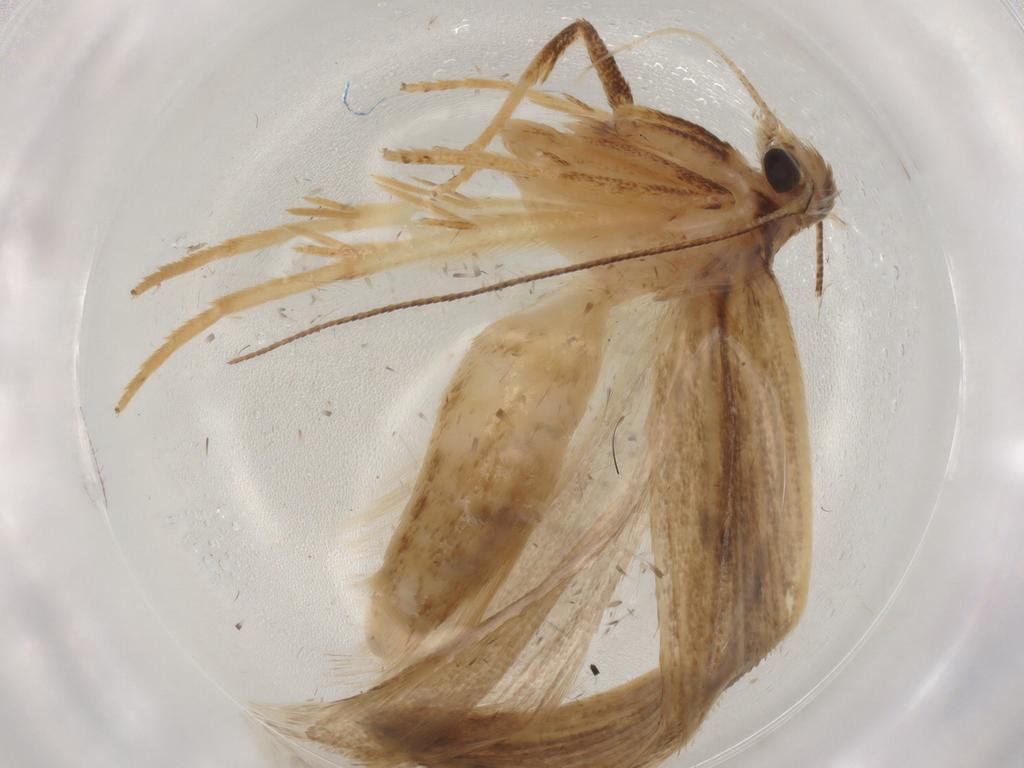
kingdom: Animalia
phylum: Arthropoda
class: Insecta
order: Lepidoptera
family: Gelechiidae
